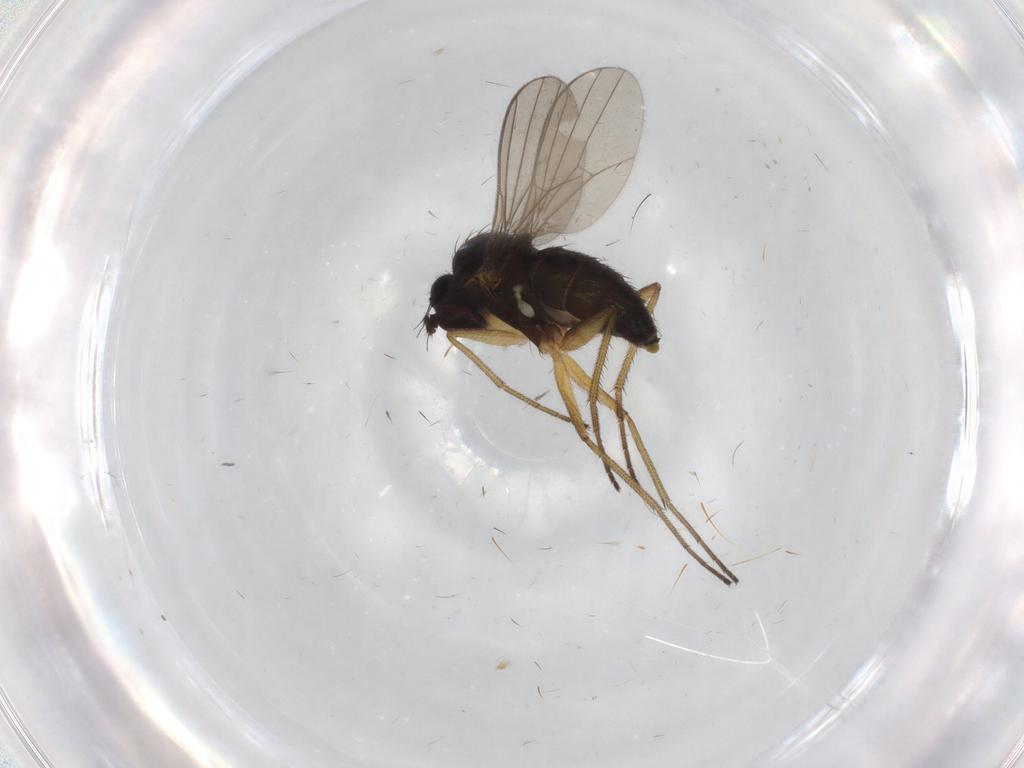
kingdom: Animalia
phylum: Arthropoda
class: Insecta
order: Diptera
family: Dolichopodidae
